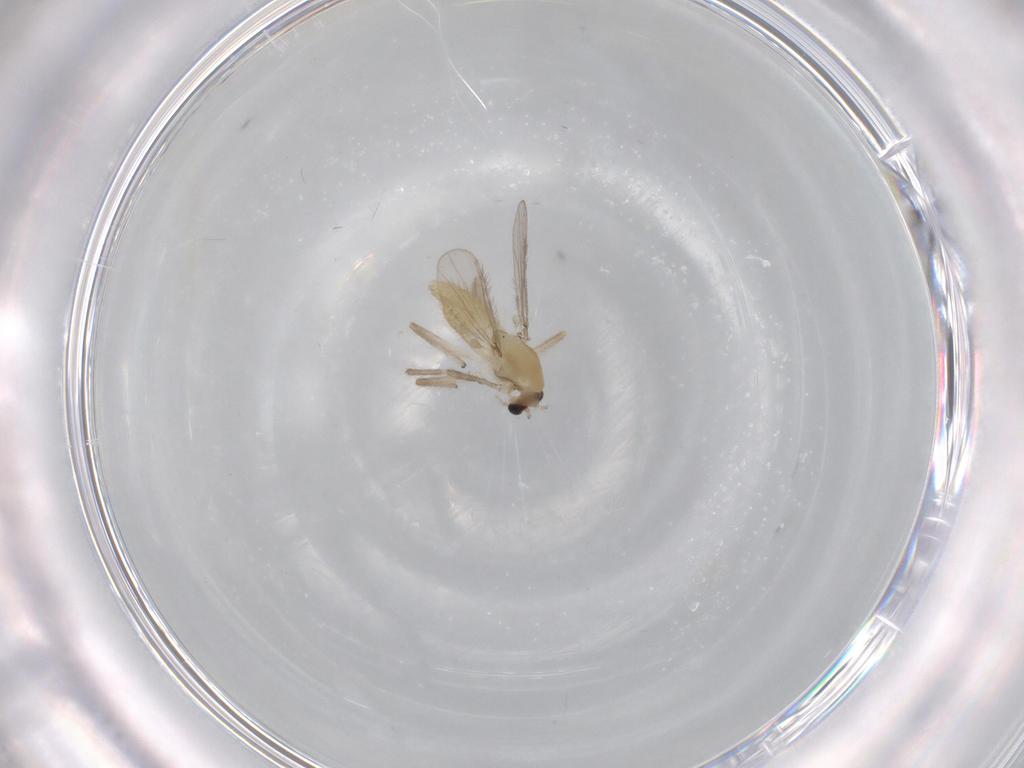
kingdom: Animalia
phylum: Arthropoda
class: Insecta
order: Diptera
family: Chironomidae
